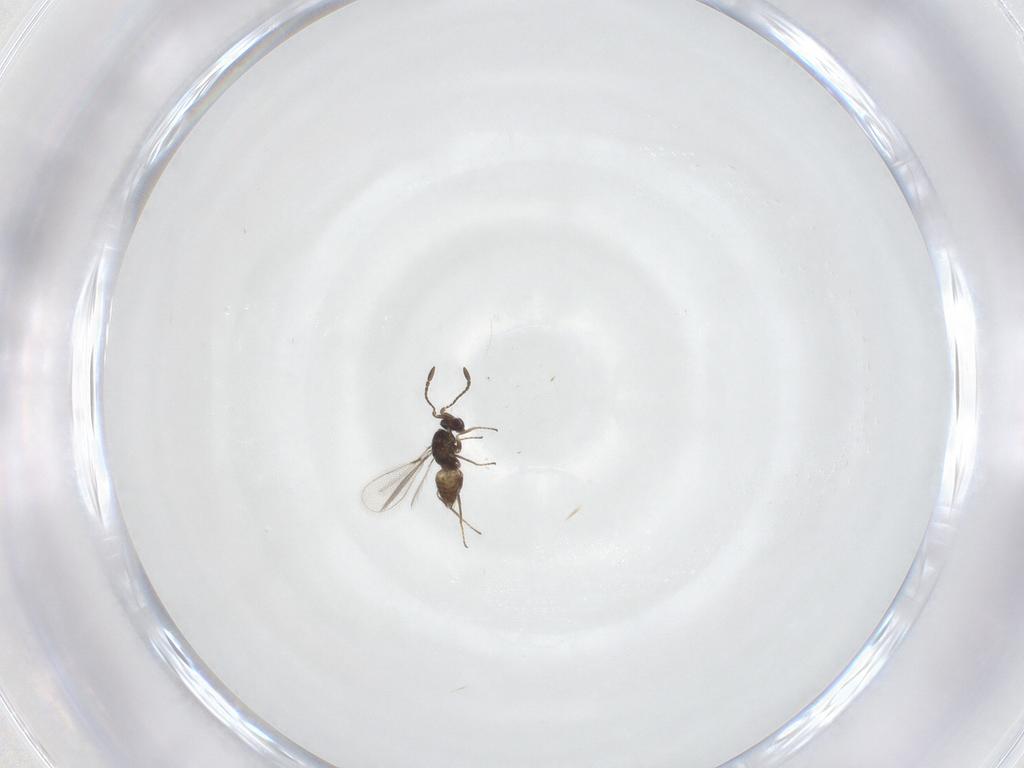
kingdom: Animalia
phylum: Arthropoda
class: Insecta
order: Hymenoptera
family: Mymaridae
